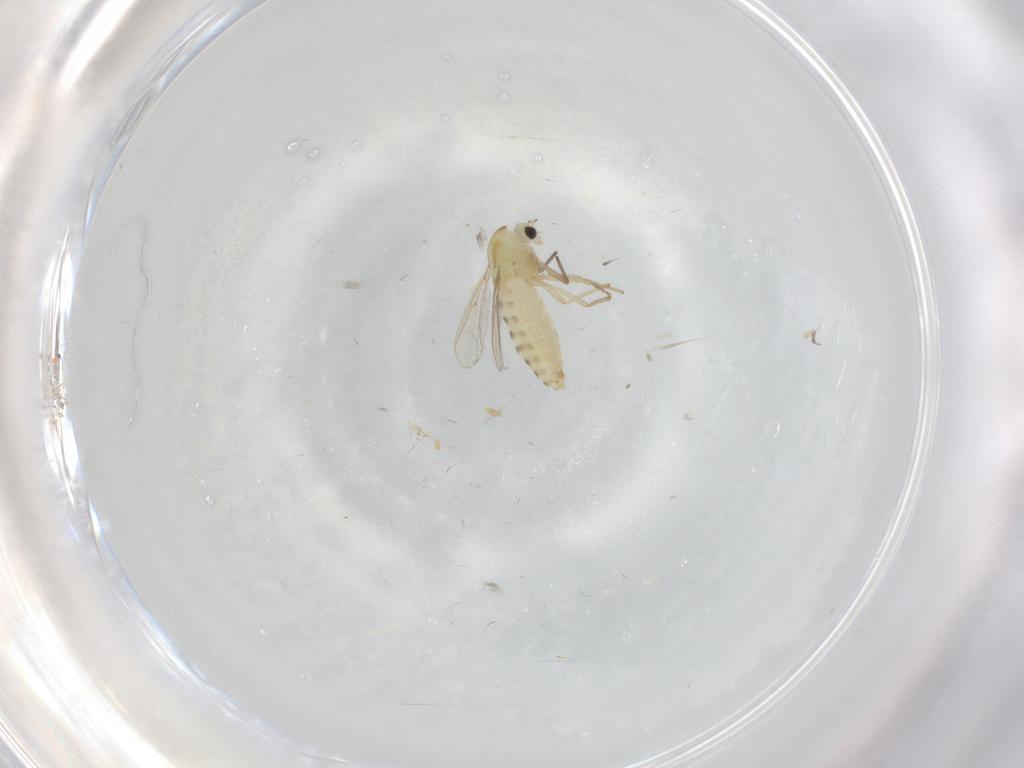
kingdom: Animalia
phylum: Arthropoda
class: Insecta
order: Diptera
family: Chironomidae
